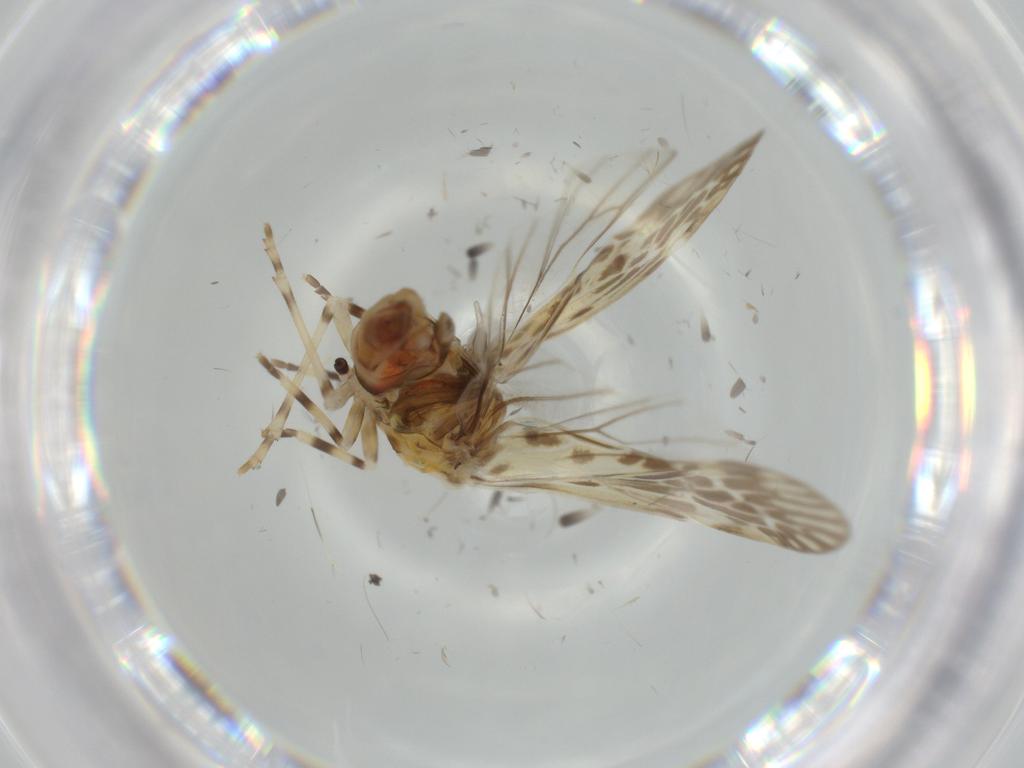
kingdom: Animalia
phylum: Arthropoda
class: Insecta
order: Hemiptera
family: Derbidae
